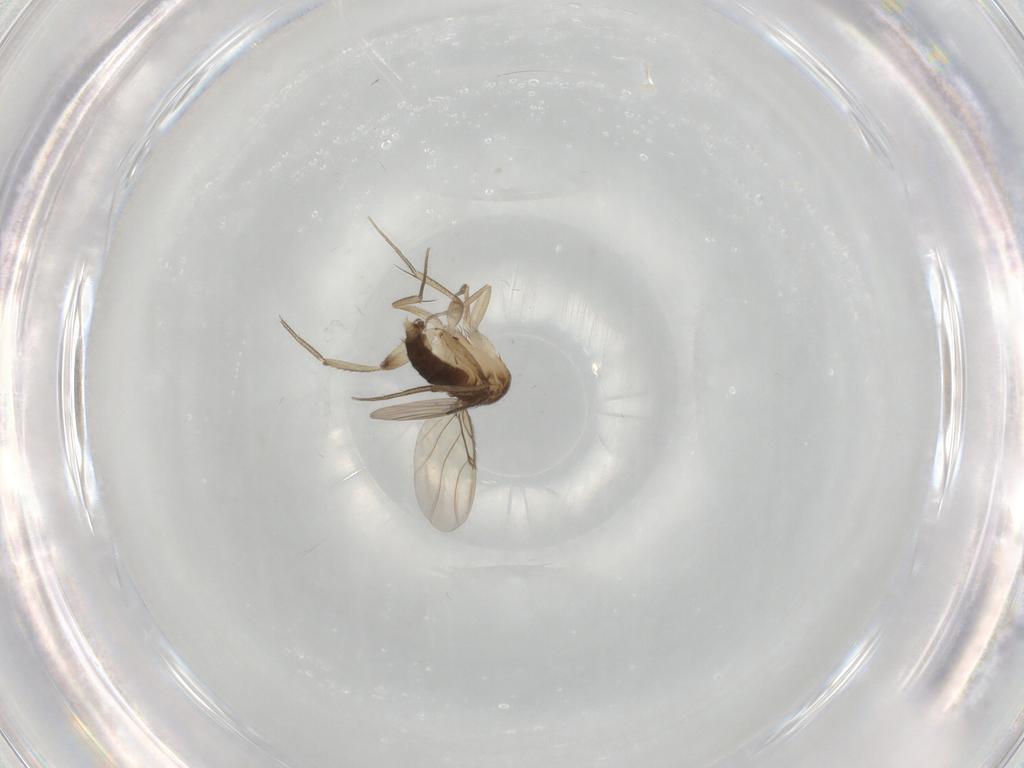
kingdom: Animalia
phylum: Arthropoda
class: Insecta
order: Diptera
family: Phoridae
